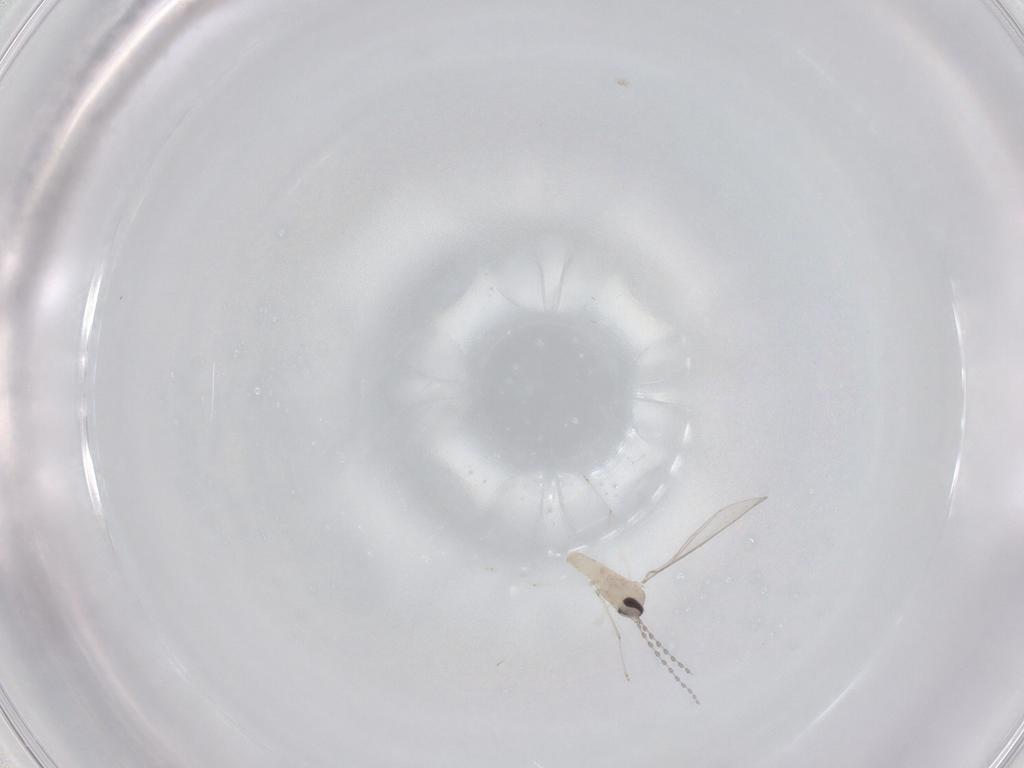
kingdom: Animalia
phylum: Arthropoda
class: Insecta
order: Diptera
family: Cecidomyiidae
